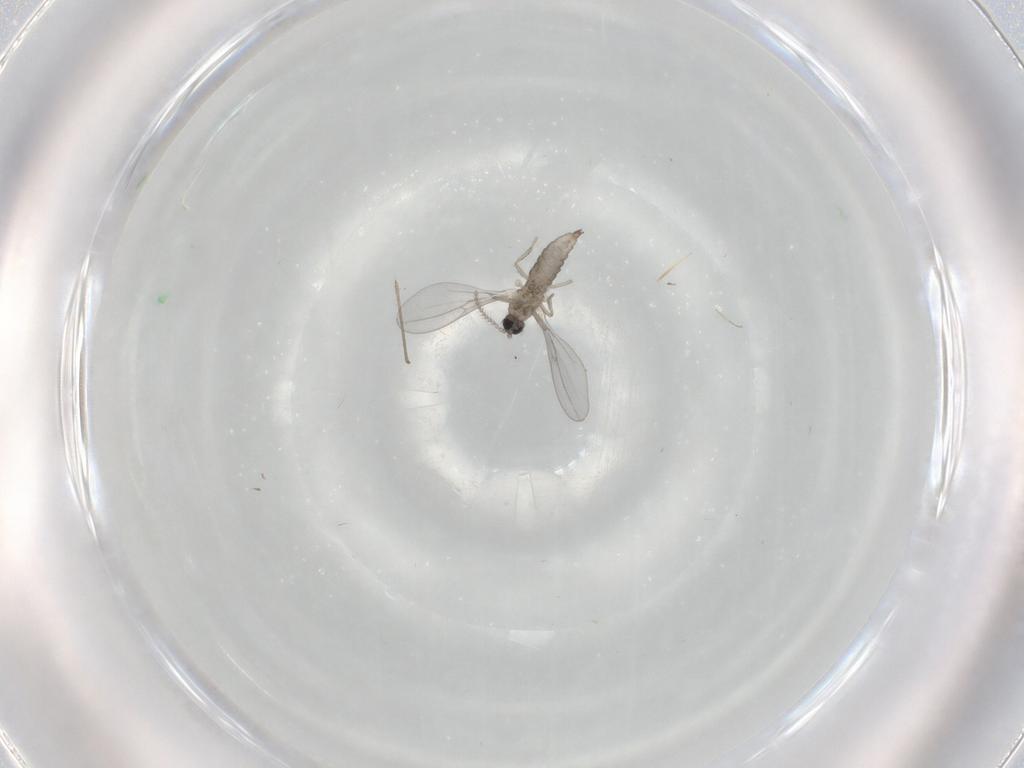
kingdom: Animalia
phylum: Arthropoda
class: Insecta
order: Diptera
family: Cecidomyiidae
